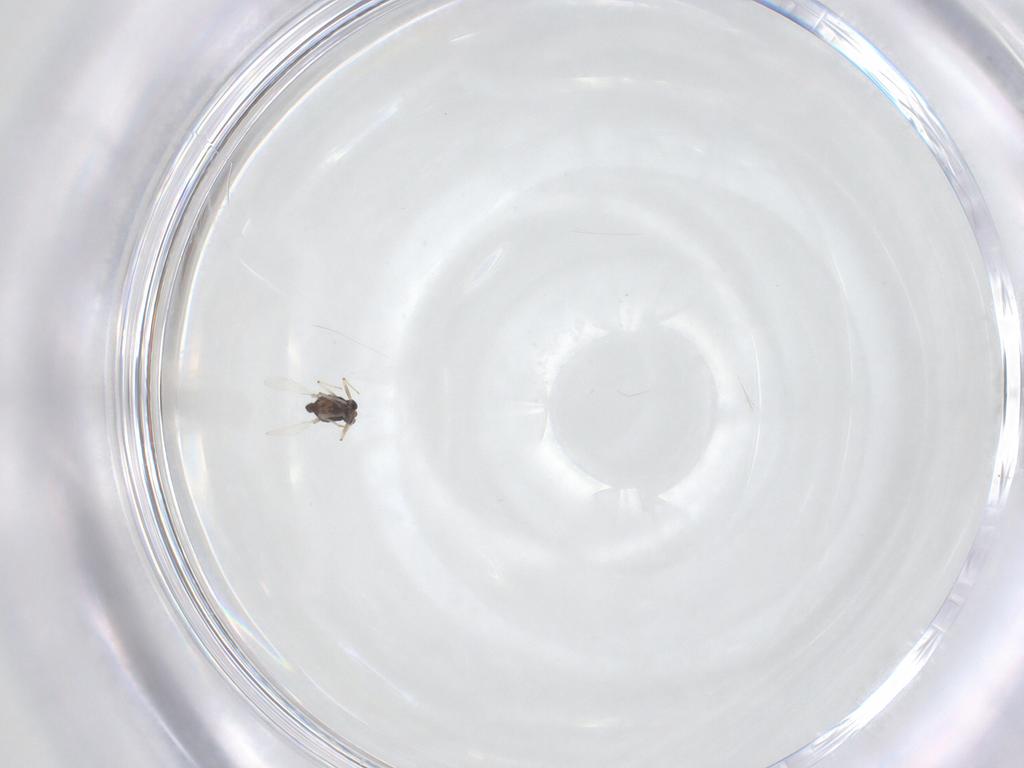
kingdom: Animalia
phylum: Arthropoda
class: Insecta
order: Diptera
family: Chironomidae
